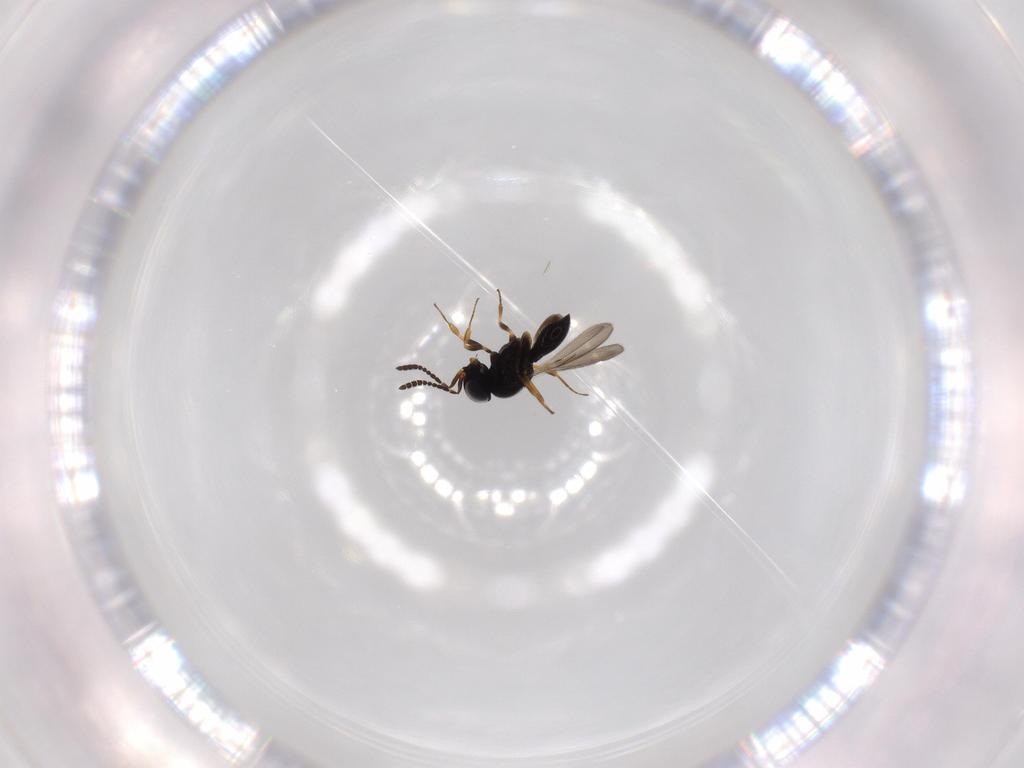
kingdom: Animalia
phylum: Arthropoda
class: Insecta
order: Hymenoptera
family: Scelionidae
